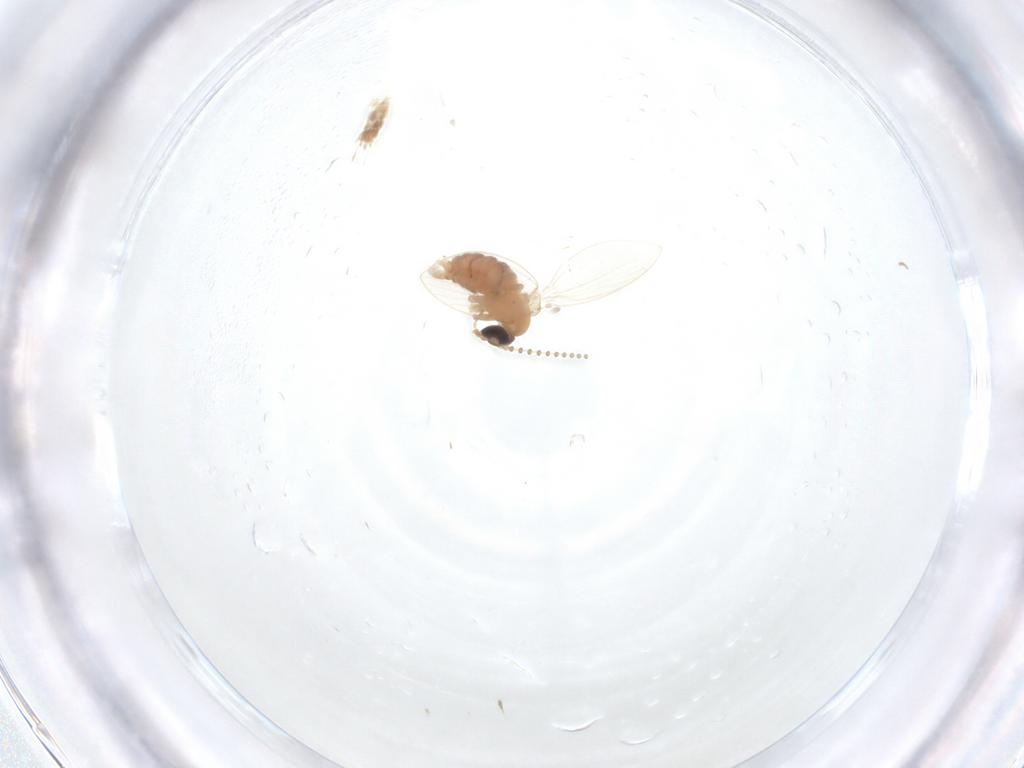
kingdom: Animalia
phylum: Arthropoda
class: Insecta
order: Diptera
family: Psychodidae
